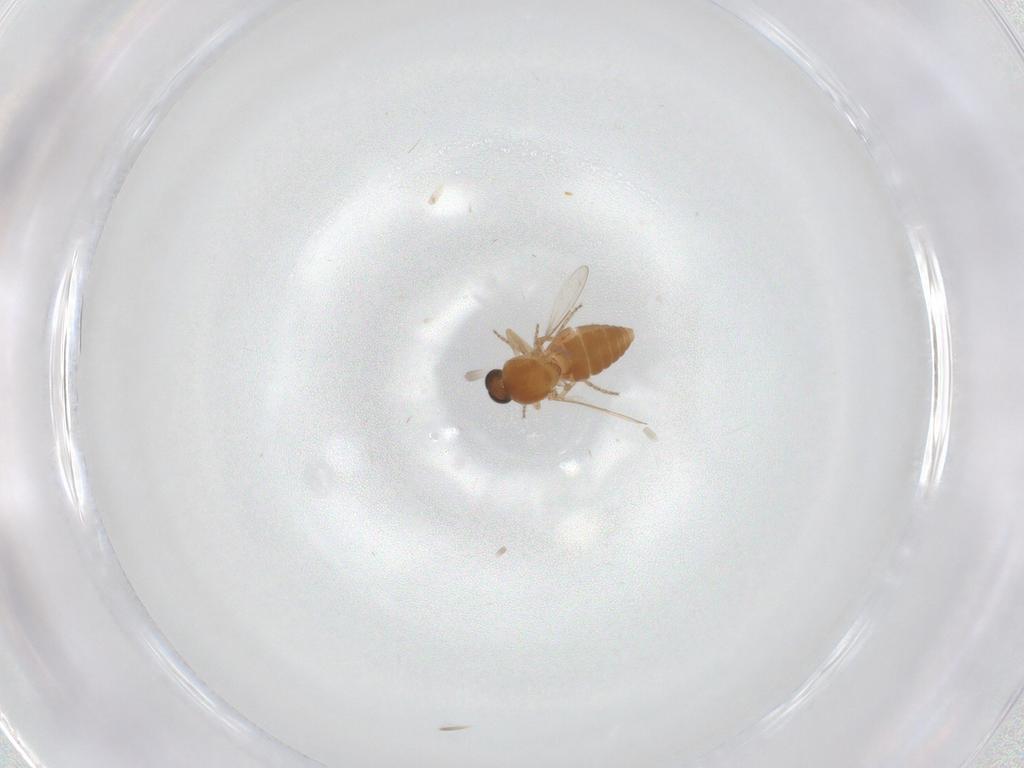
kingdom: Animalia
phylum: Arthropoda
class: Insecta
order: Diptera
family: Ceratopogonidae
